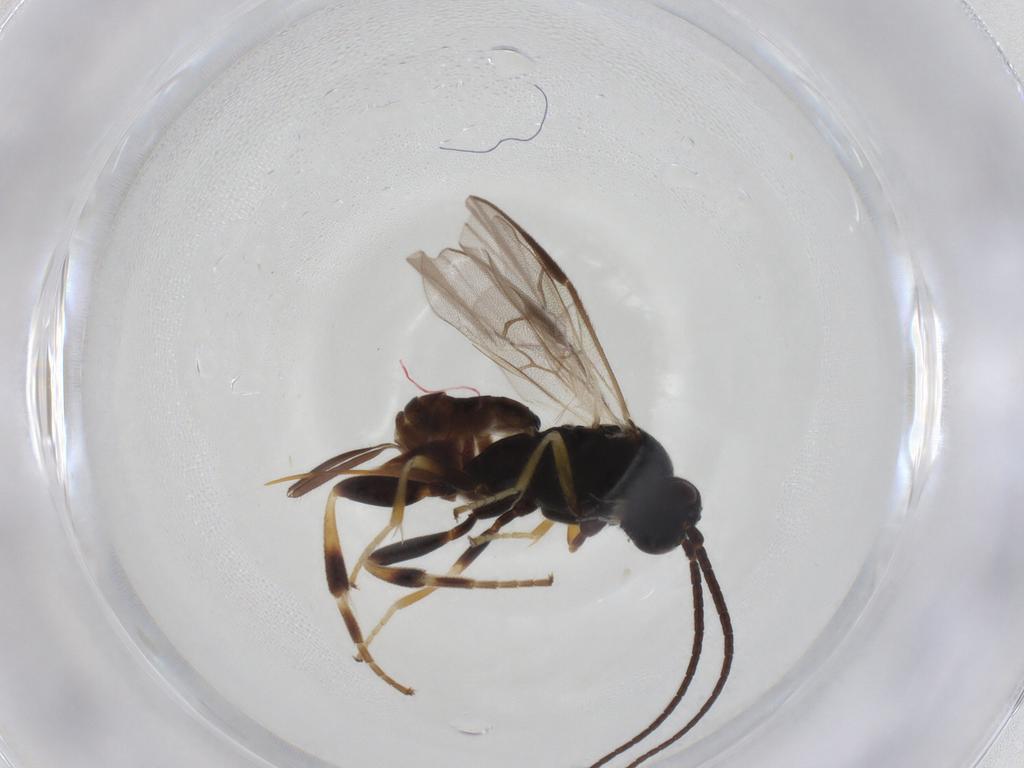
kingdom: Animalia
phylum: Arthropoda
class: Insecta
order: Hymenoptera
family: Braconidae
